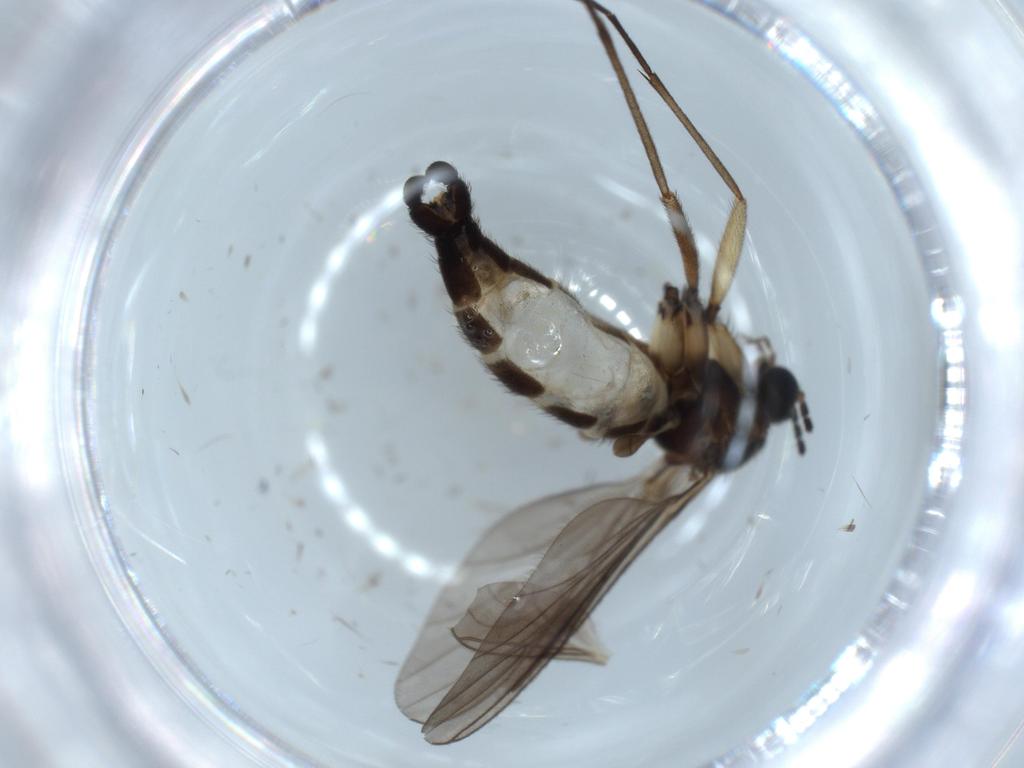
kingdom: Animalia
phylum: Arthropoda
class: Insecta
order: Diptera
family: Sciaridae
